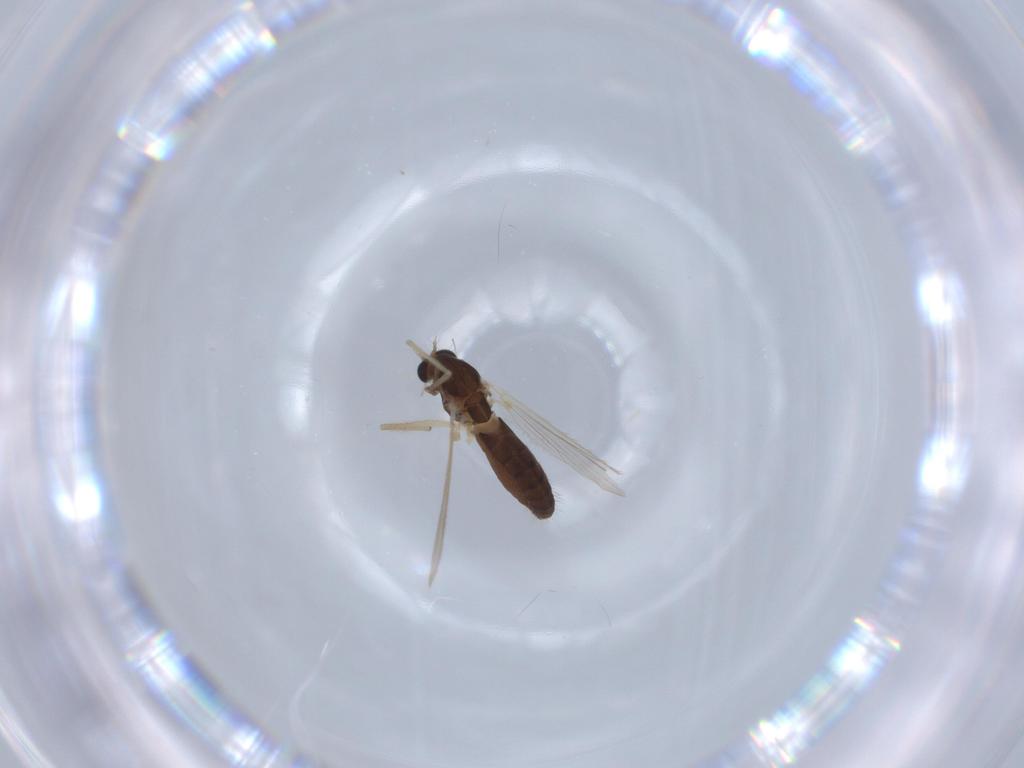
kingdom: Animalia
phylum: Arthropoda
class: Insecta
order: Diptera
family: Chironomidae
